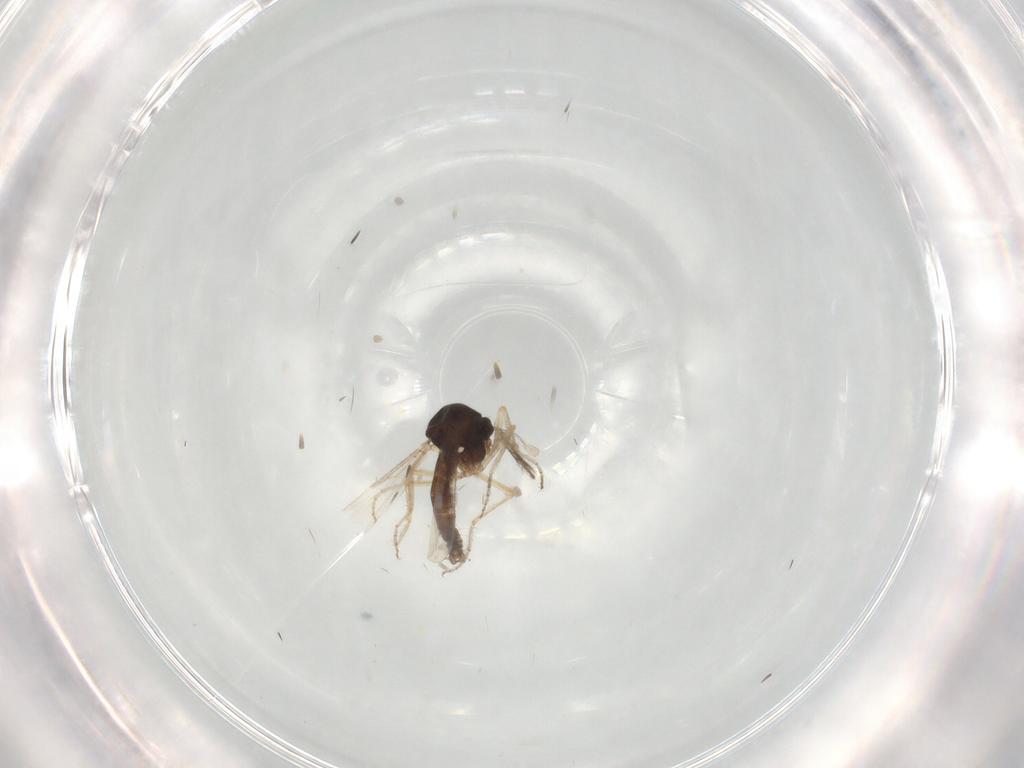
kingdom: Animalia
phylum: Arthropoda
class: Insecta
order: Diptera
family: Ceratopogonidae
